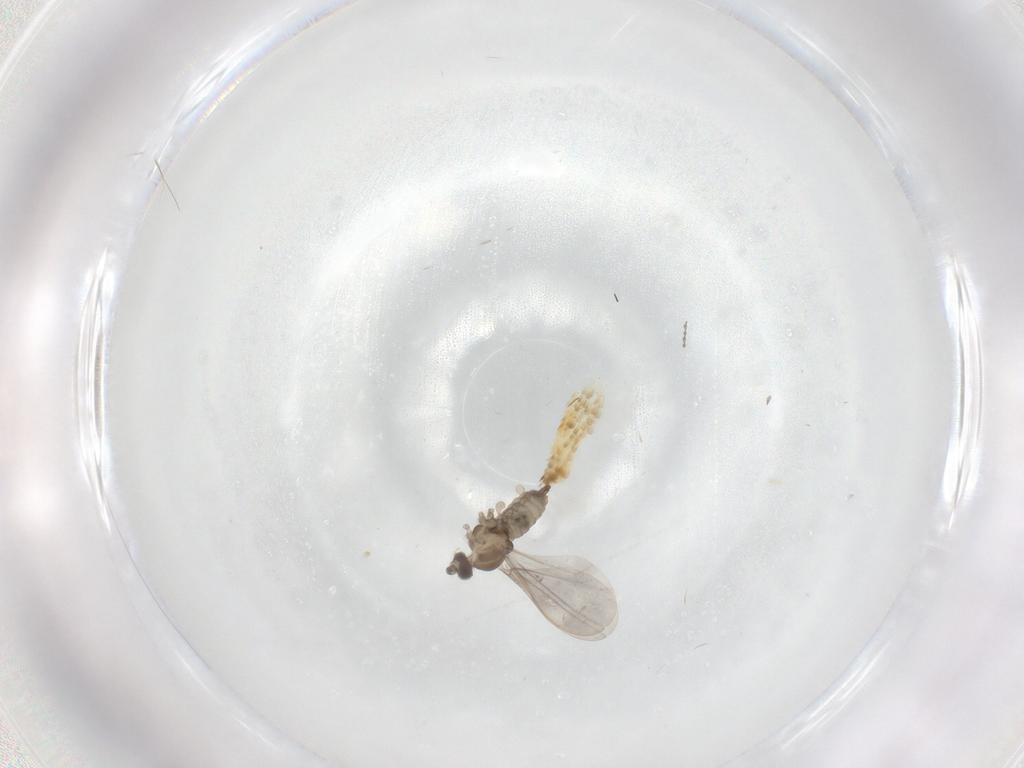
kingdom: Animalia
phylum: Arthropoda
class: Insecta
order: Diptera
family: Cecidomyiidae
